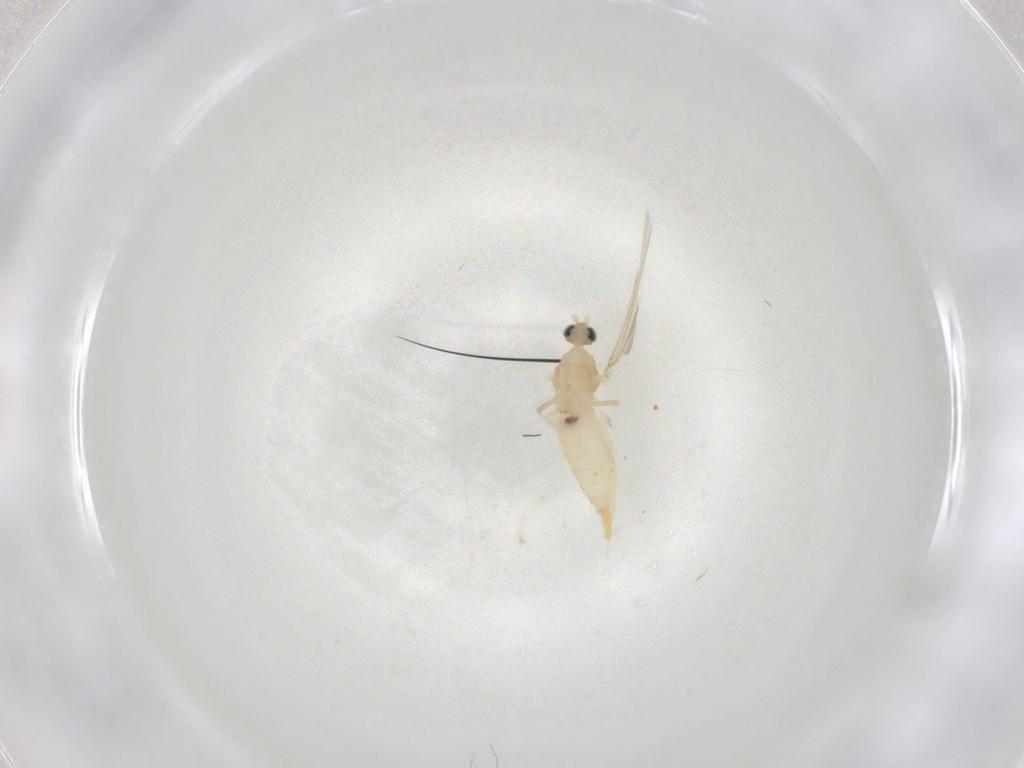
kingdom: Animalia
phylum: Arthropoda
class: Insecta
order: Diptera
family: Cecidomyiidae
